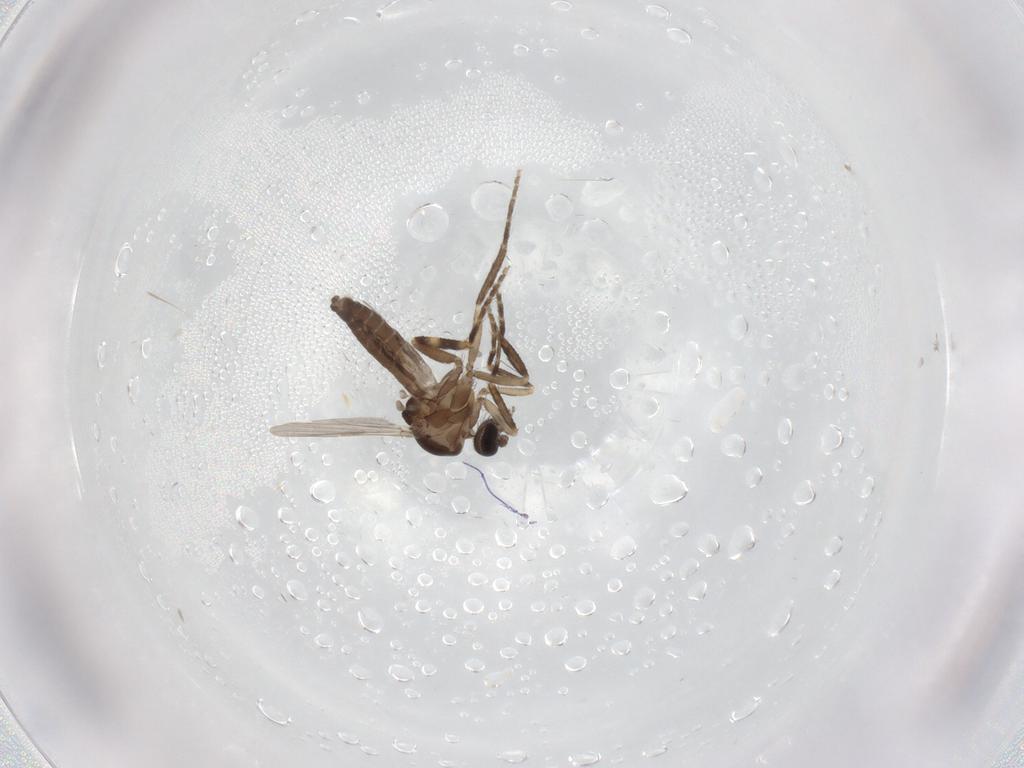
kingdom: Animalia
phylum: Arthropoda
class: Insecta
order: Diptera
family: Ceratopogonidae
